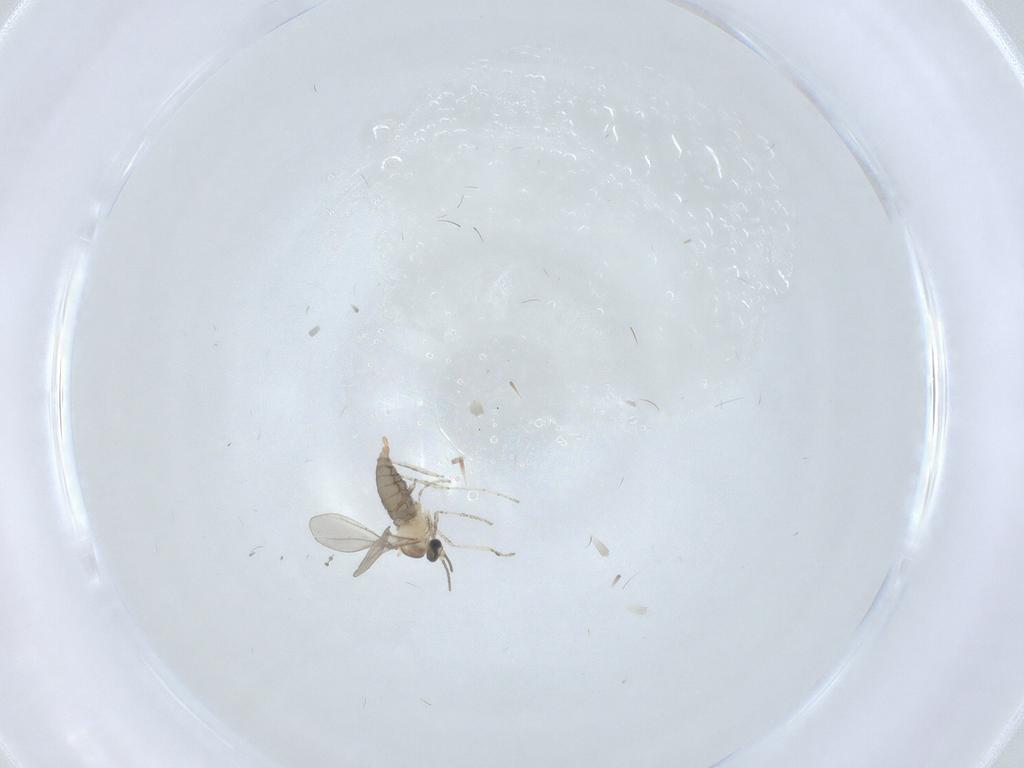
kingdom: Animalia
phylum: Arthropoda
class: Insecta
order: Diptera
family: Cecidomyiidae
